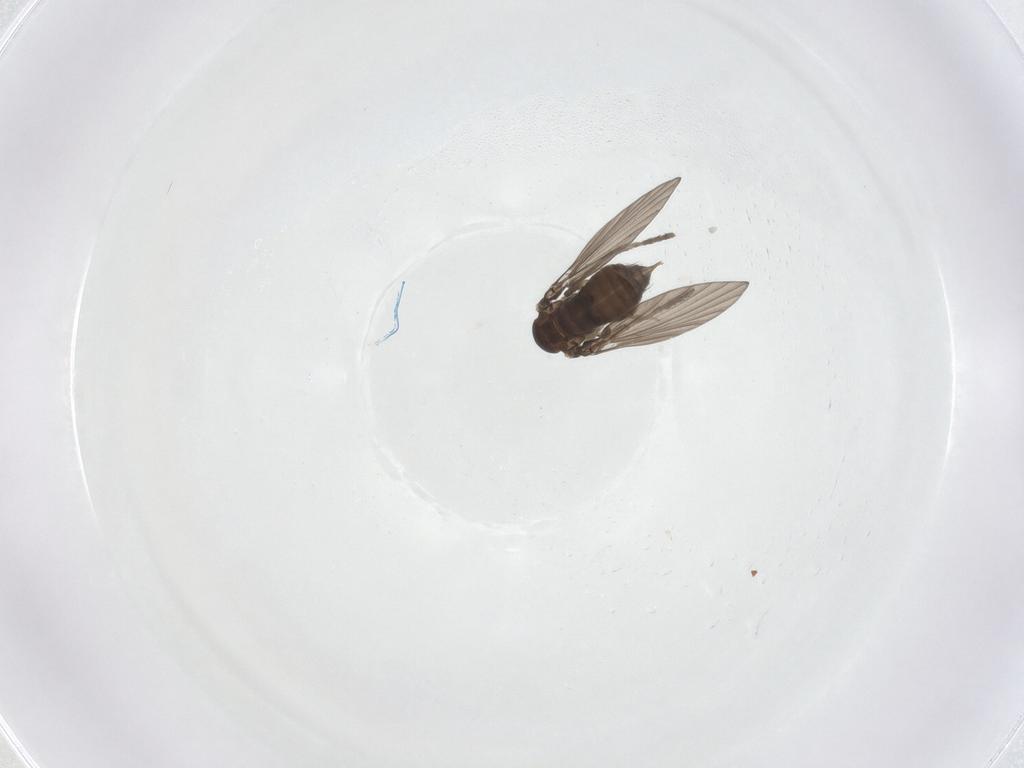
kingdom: Animalia
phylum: Arthropoda
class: Insecta
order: Diptera
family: Psychodidae
